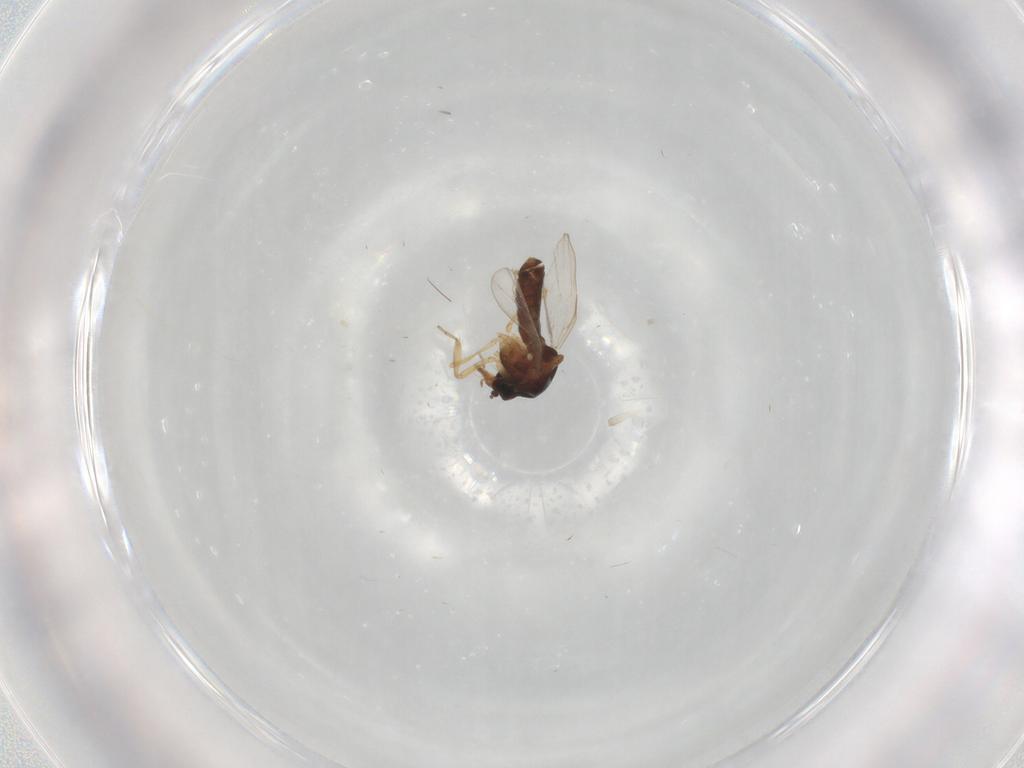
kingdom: Animalia
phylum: Arthropoda
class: Insecta
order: Diptera
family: Ceratopogonidae
